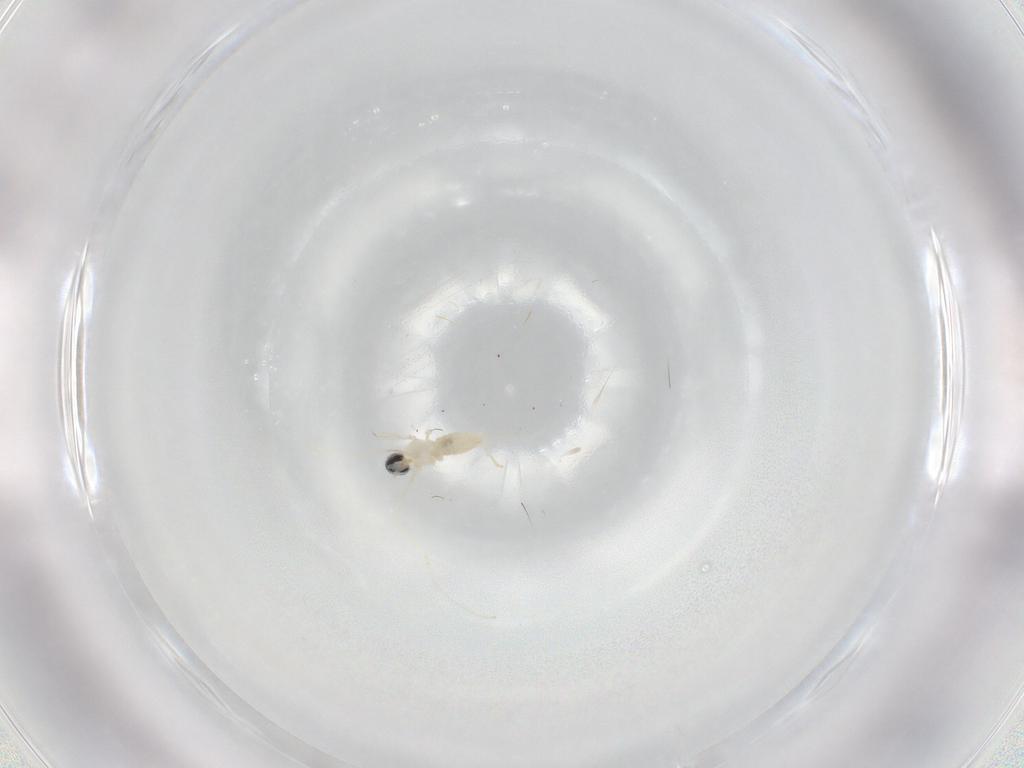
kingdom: Animalia
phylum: Arthropoda
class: Insecta
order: Diptera
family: Cecidomyiidae
